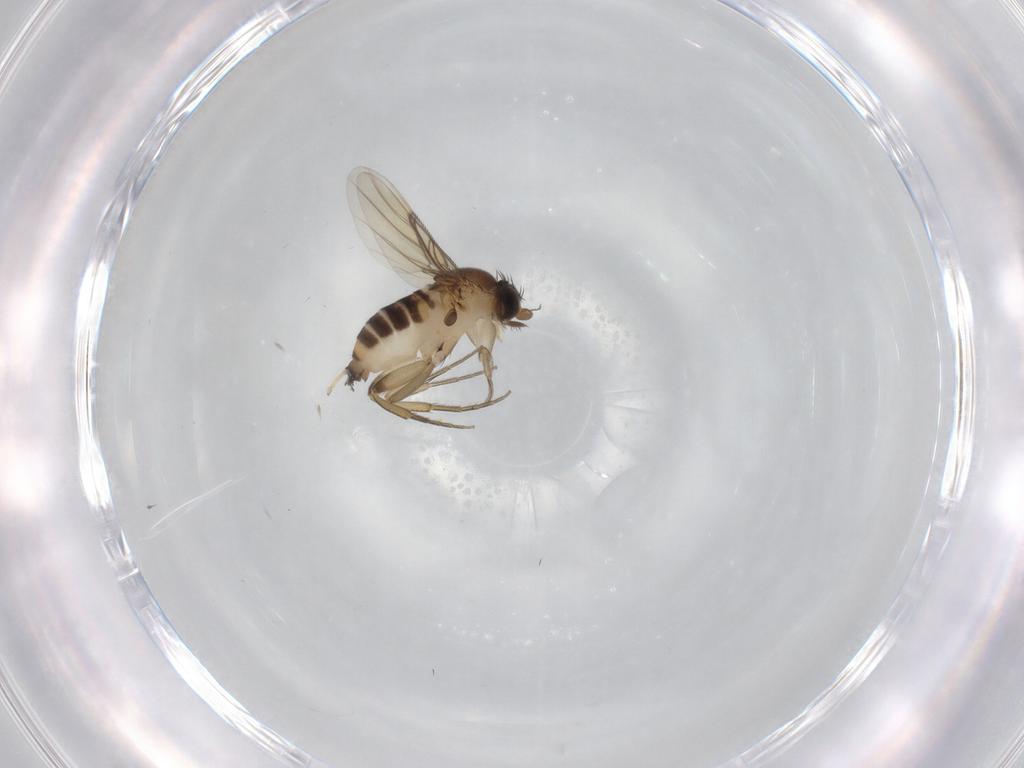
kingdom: Animalia
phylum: Arthropoda
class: Insecta
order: Diptera
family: Phoridae
